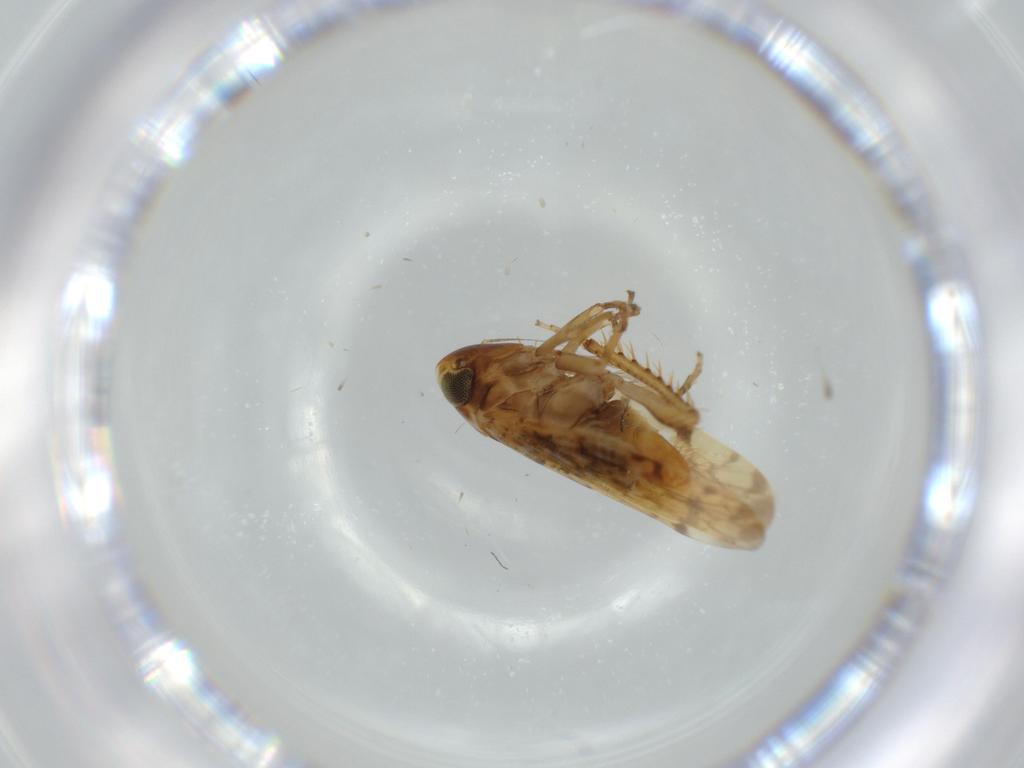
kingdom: Animalia
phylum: Arthropoda
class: Insecta
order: Hemiptera
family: Cicadellidae
